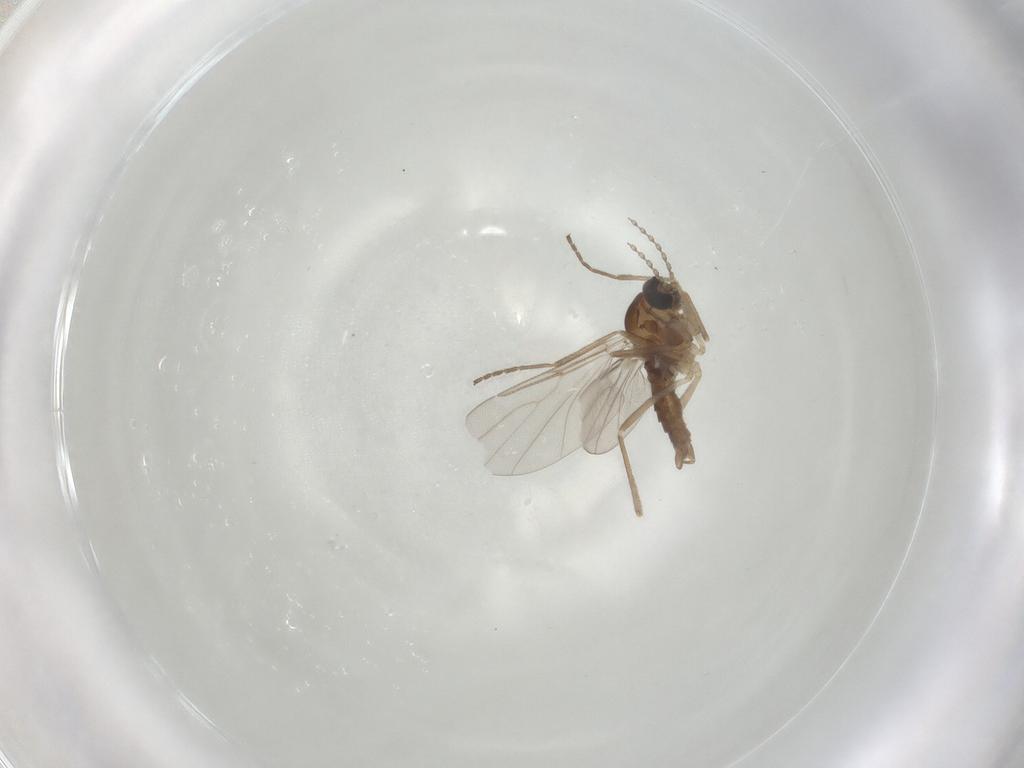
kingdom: Animalia
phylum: Arthropoda
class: Insecta
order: Diptera
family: Cecidomyiidae
